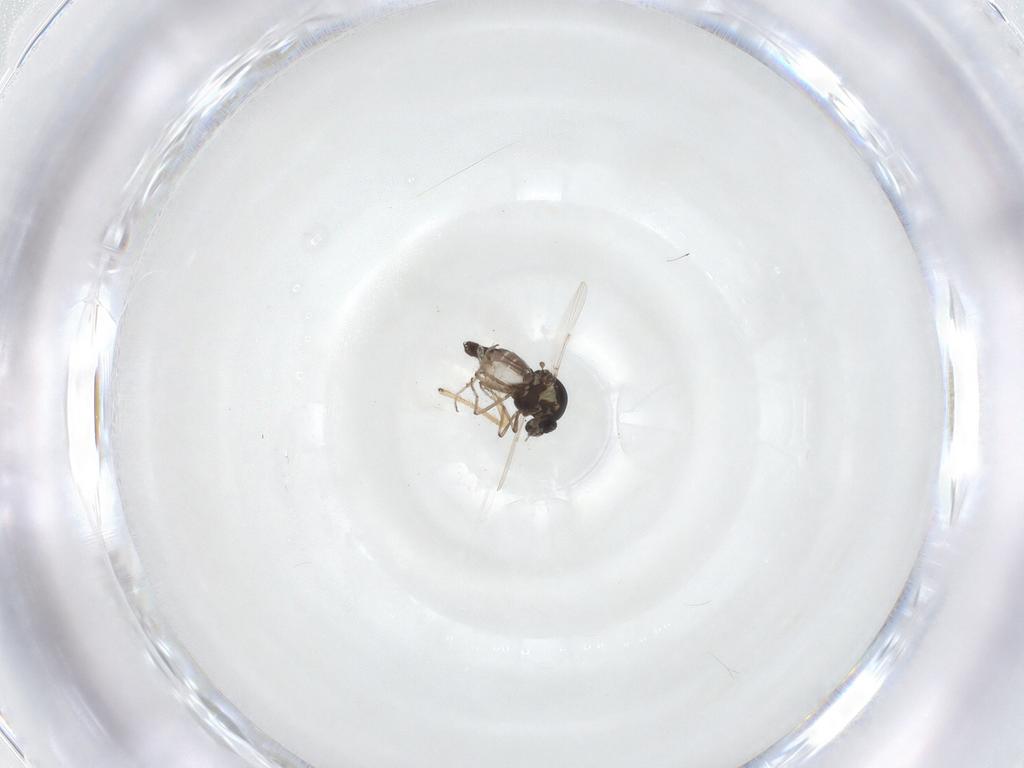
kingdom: Animalia
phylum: Arthropoda
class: Insecta
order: Diptera
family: Ceratopogonidae
